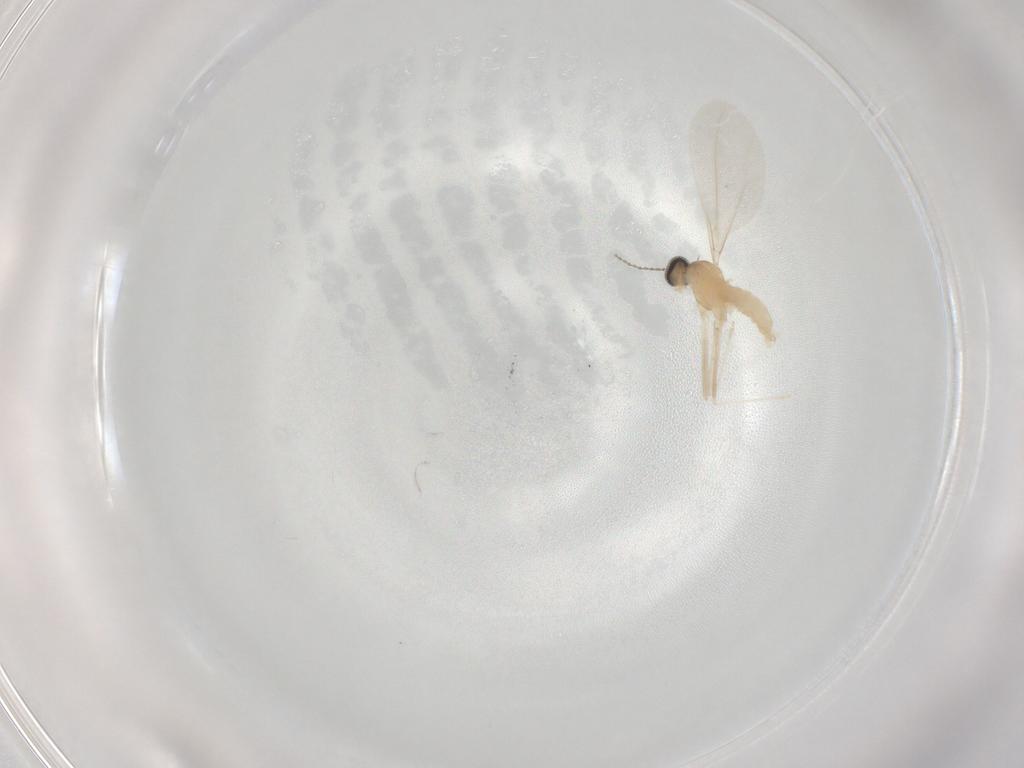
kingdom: Animalia
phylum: Arthropoda
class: Insecta
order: Diptera
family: Cecidomyiidae
